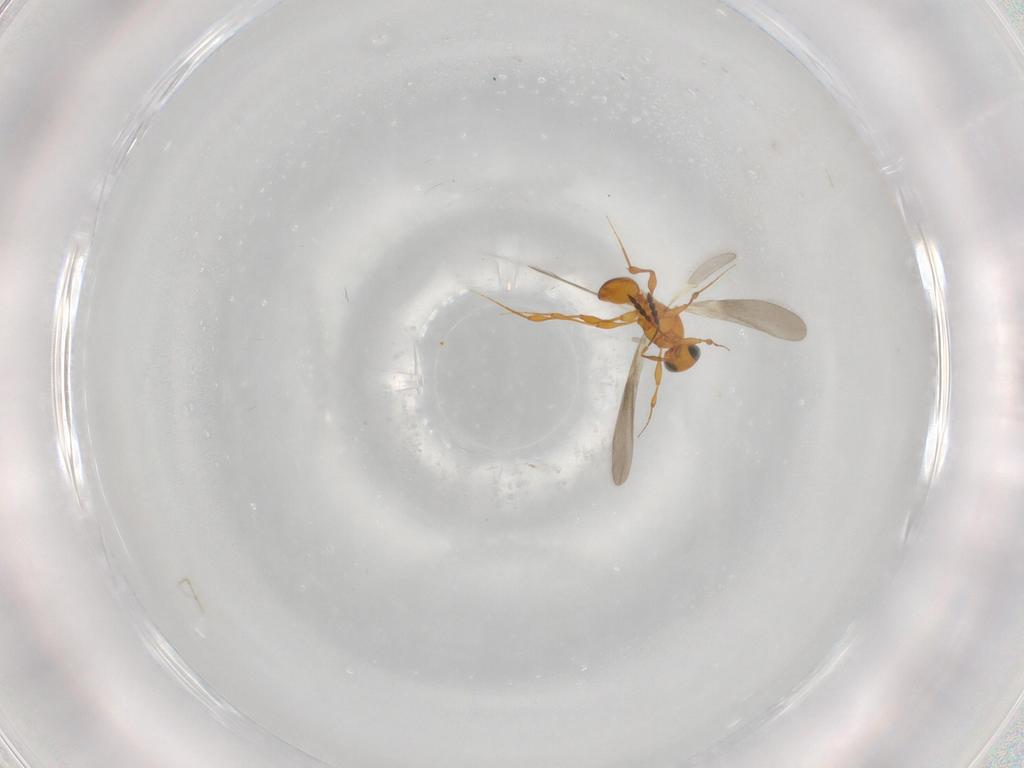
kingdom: Animalia
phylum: Arthropoda
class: Insecta
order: Hymenoptera
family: Platygastridae
